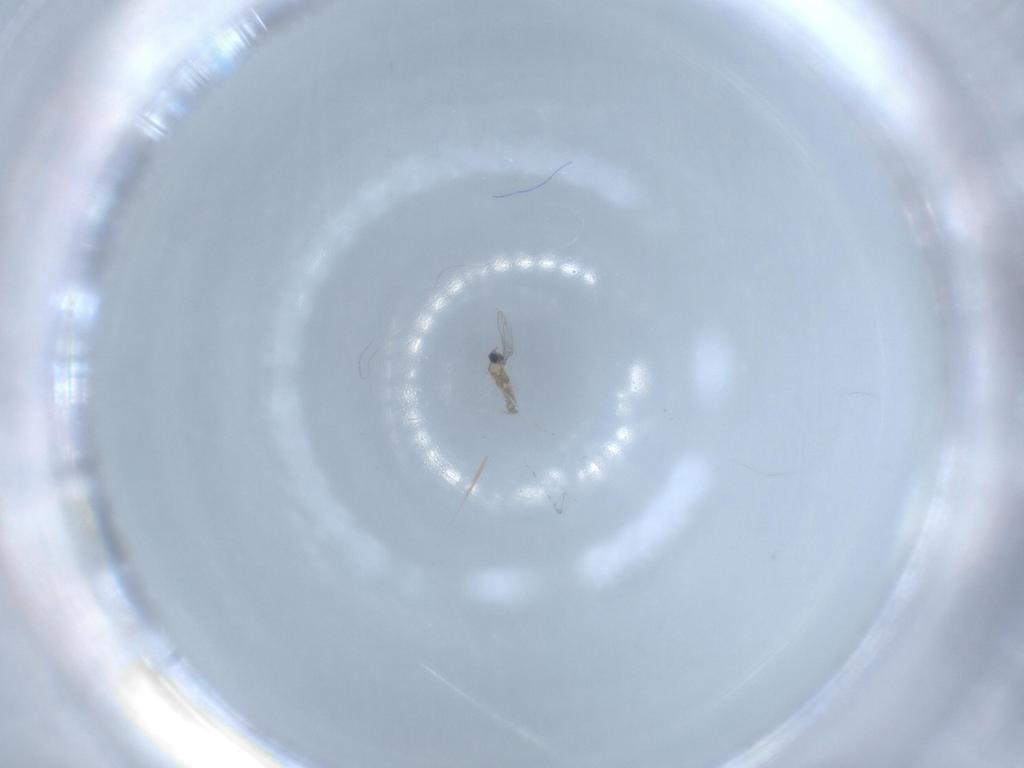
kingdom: Animalia
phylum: Arthropoda
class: Insecta
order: Diptera
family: Cecidomyiidae
